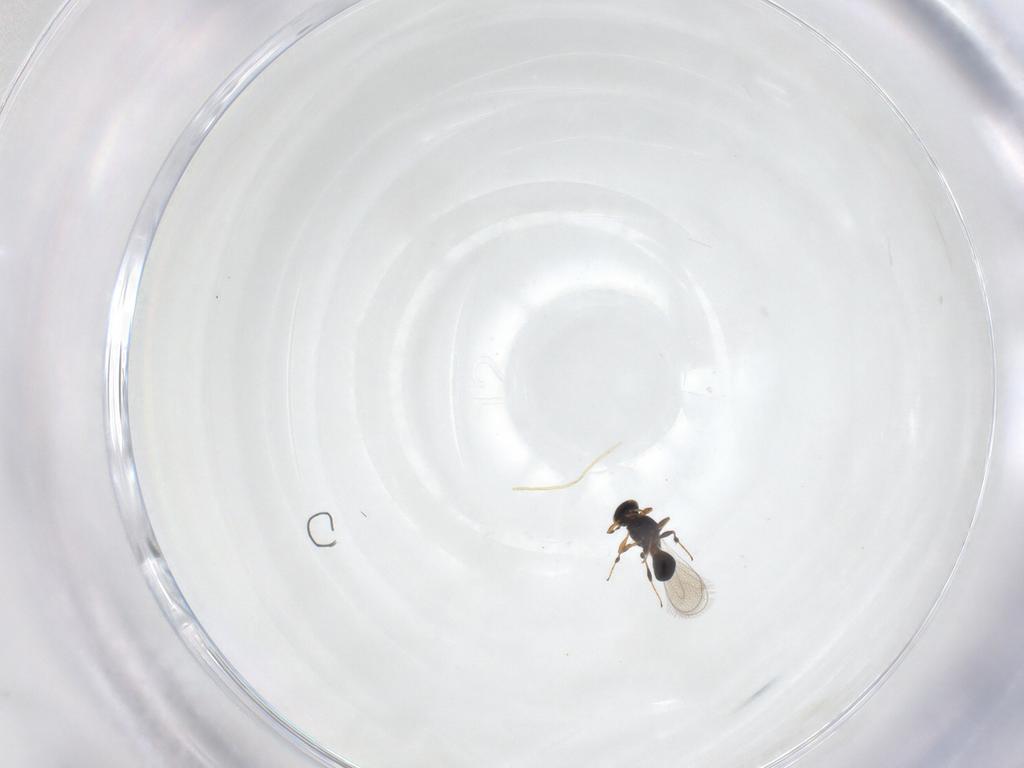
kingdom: Animalia
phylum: Arthropoda
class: Insecta
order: Hymenoptera
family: Platygastridae
